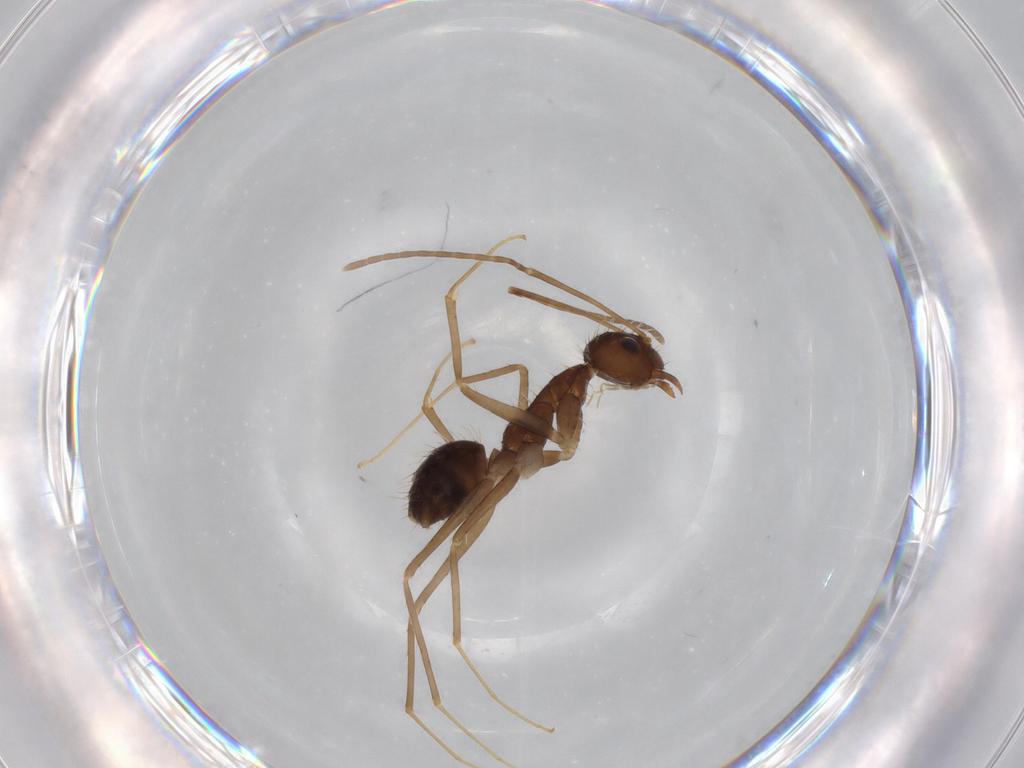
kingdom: Animalia
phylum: Arthropoda
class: Insecta
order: Hymenoptera
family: Formicidae
